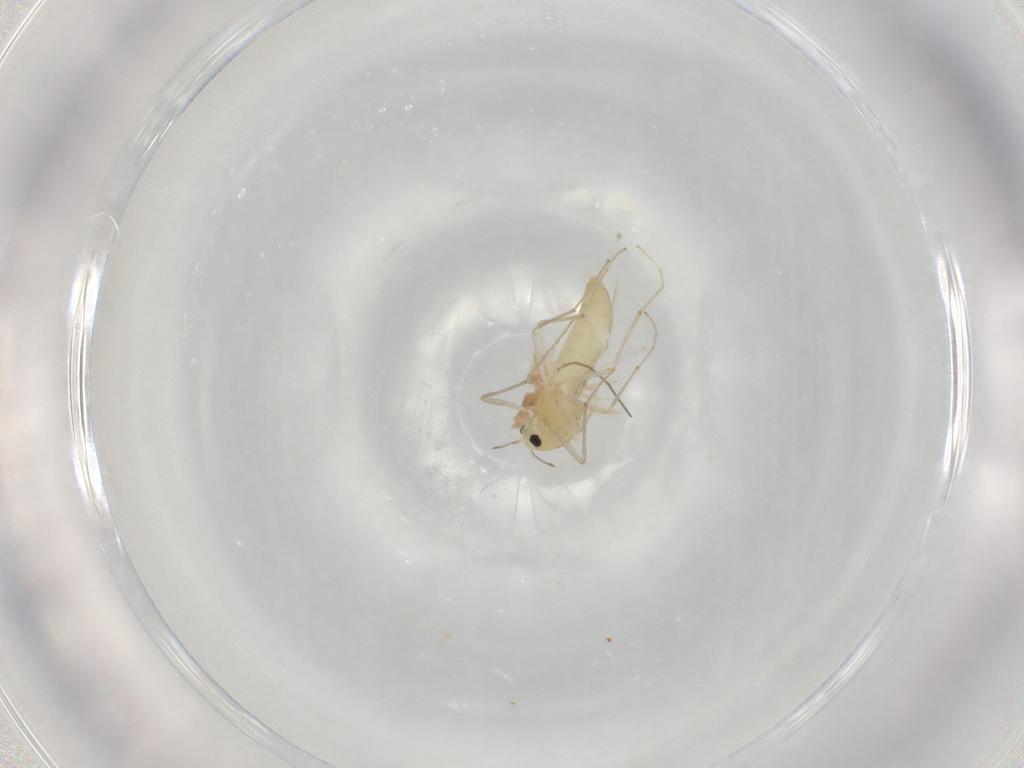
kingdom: Animalia
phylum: Arthropoda
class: Insecta
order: Diptera
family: Chironomidae
